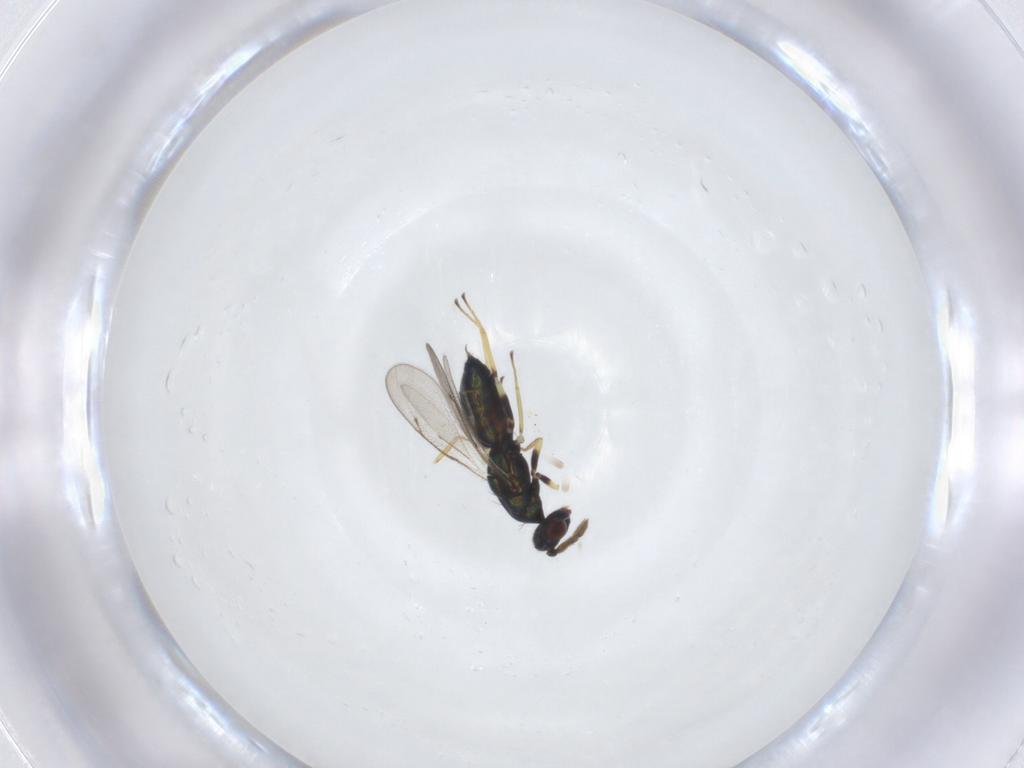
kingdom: Animalia
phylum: Arthropoda
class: Insecta
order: Hymenoptera
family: Eulophidae
